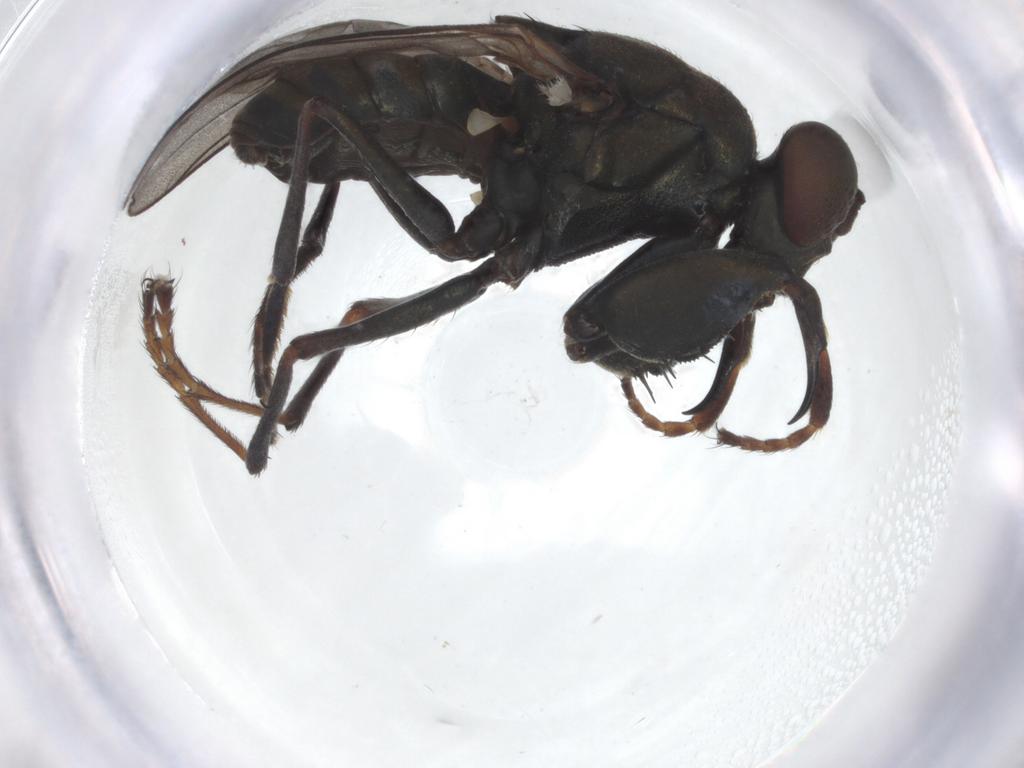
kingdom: Animalia
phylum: Arthropoda
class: Insecta
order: Diptera
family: Ephydridae
